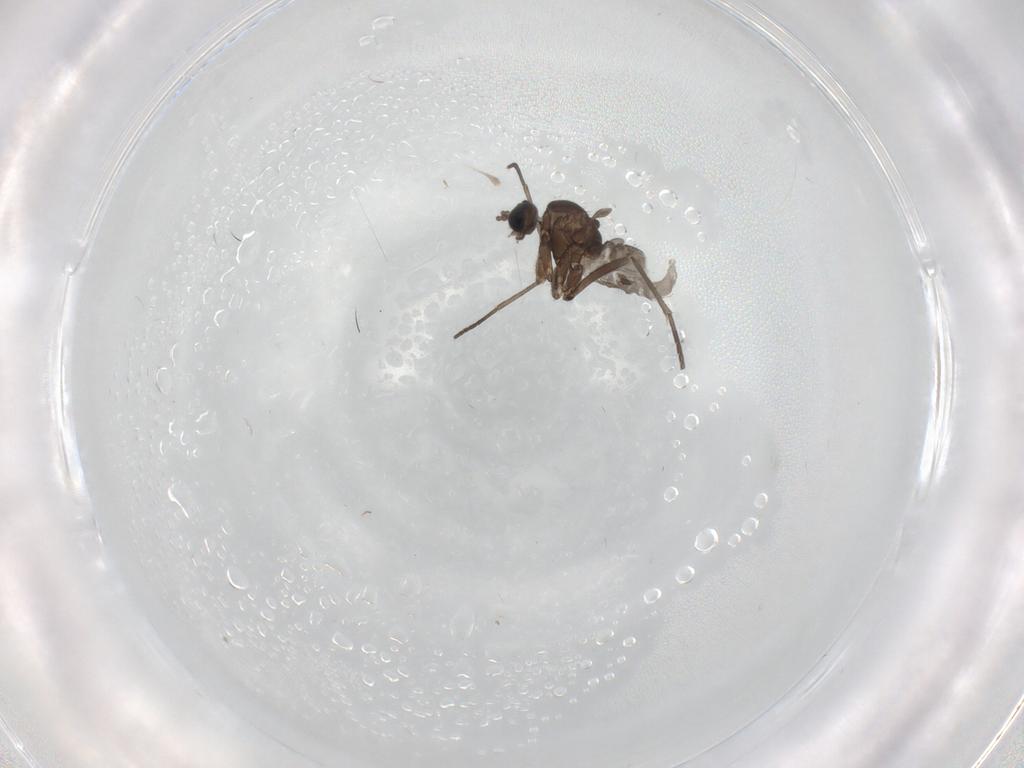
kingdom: Animalia
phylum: Arthropoda
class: Insecta
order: Diptera
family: Sciaridae
